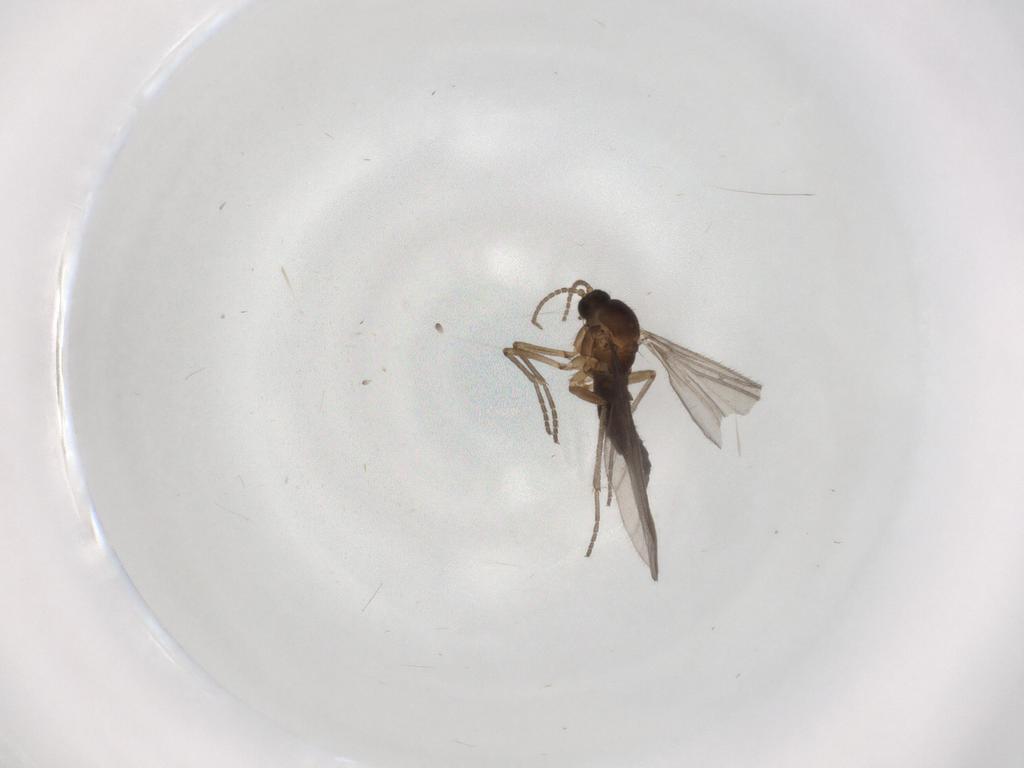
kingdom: Animalia
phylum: Arthropoda
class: Insecta
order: Diptera
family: Sciaridae
